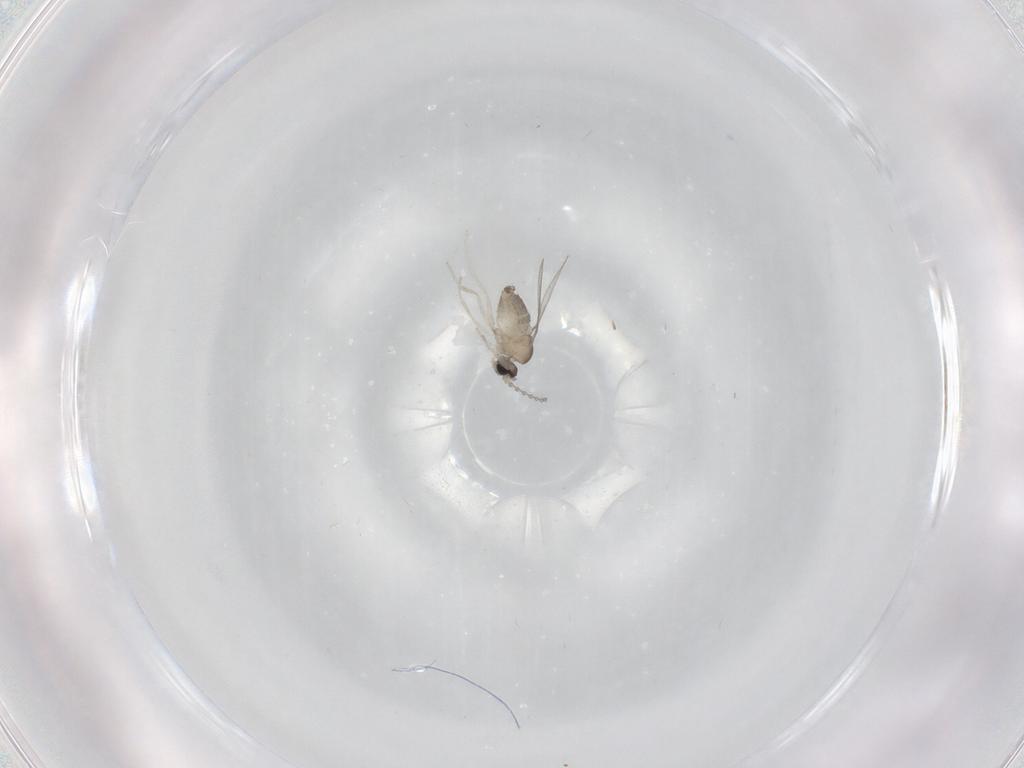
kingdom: Animalia
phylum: Arthropoda
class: Insecta
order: Diptera
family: Cecidomyiidae
